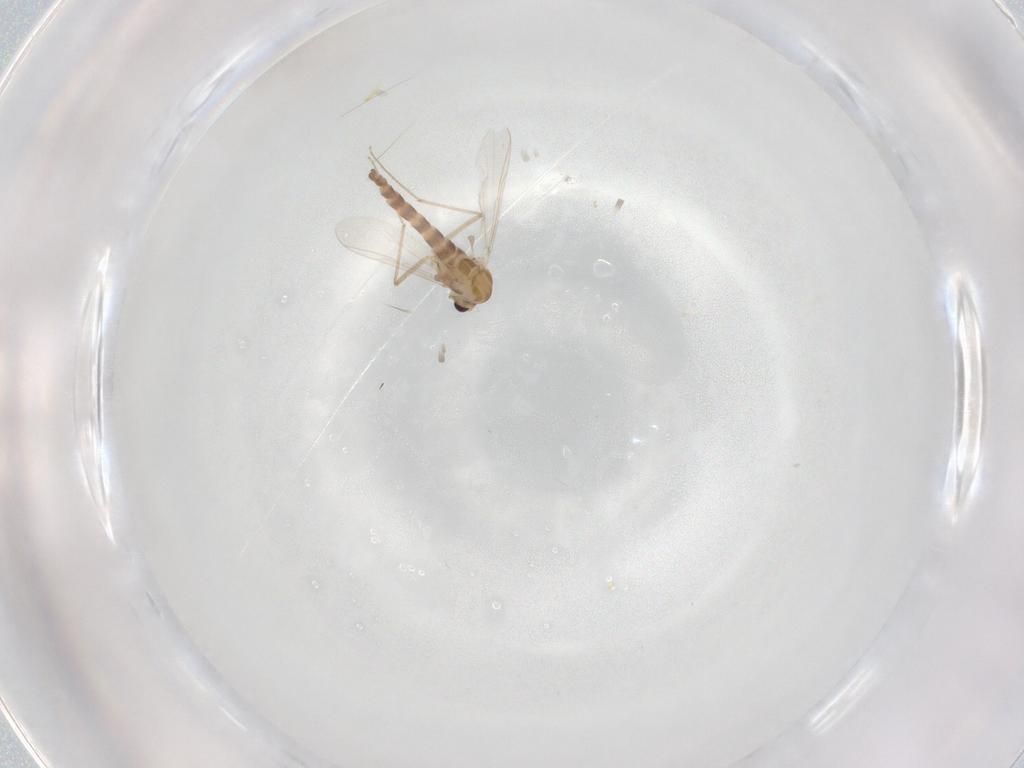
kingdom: Animalia
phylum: Arthropoda
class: Insecta
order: Diptera
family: Chironomidae
